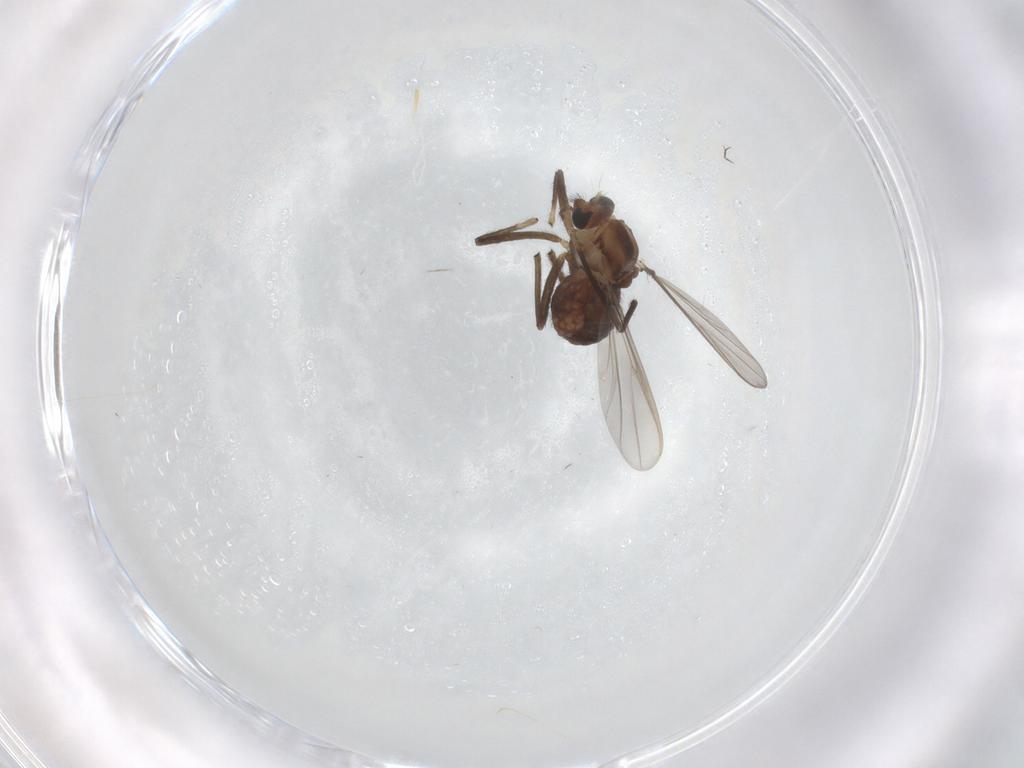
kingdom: Animalia
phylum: Arthropoda
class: Insecta
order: Diptera
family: Chironomidae
